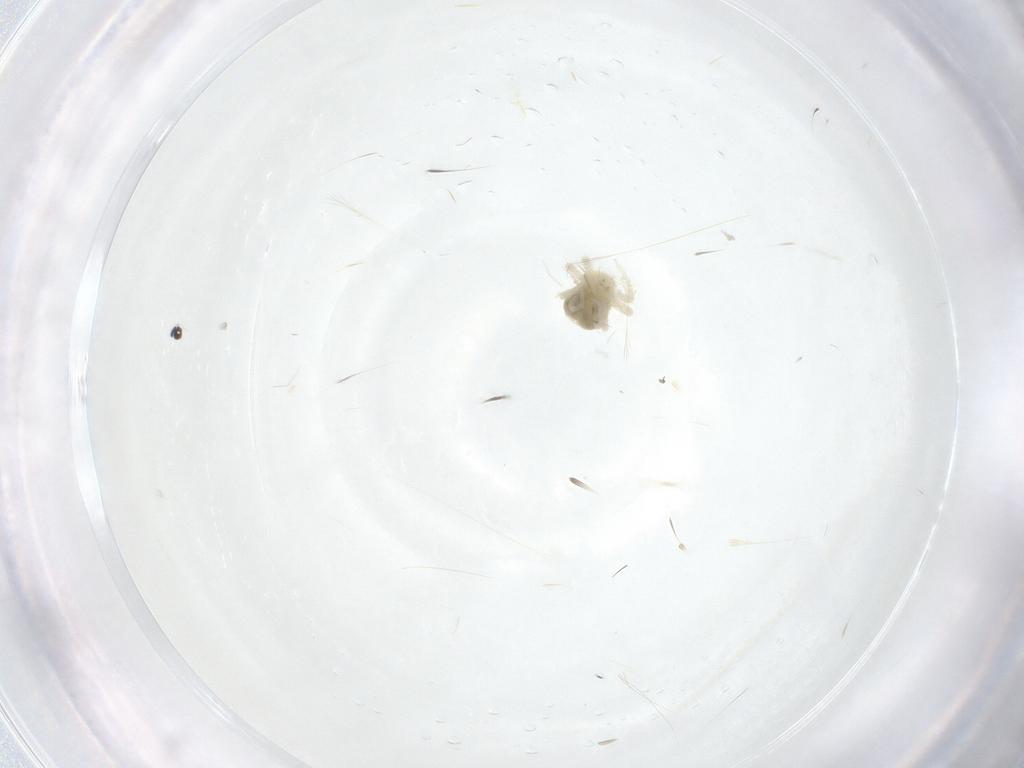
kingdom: Animalia
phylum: Arthropoda
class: Arachnida
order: Trombidiformes
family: Anystidae
